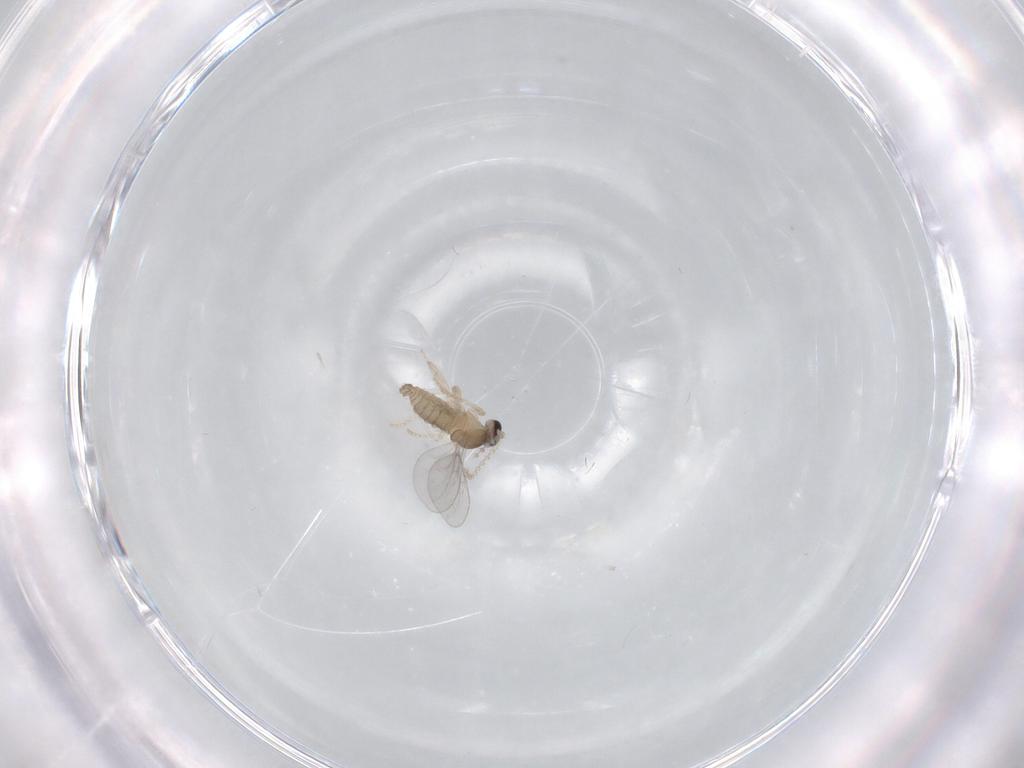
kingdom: Animalia
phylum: Arthropoda
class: Insecta
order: Diptera
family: Cecidomyiidae
